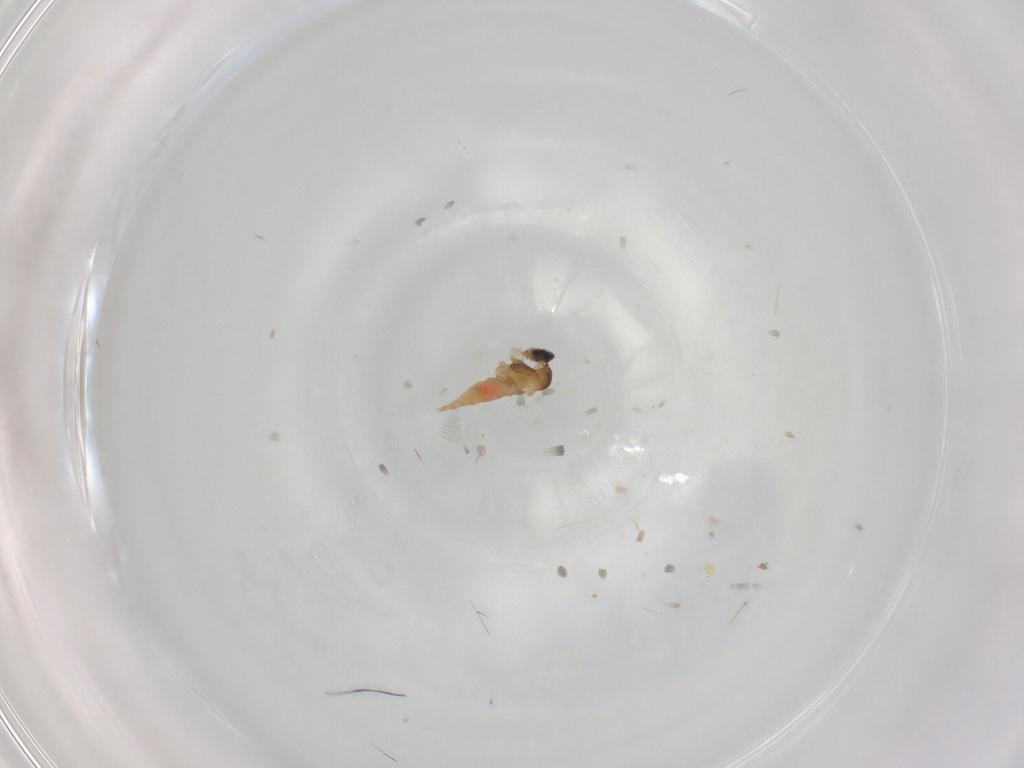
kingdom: Animalia
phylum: Arthropoda
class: Insecta
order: Diptera
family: Cecidomyiidae
